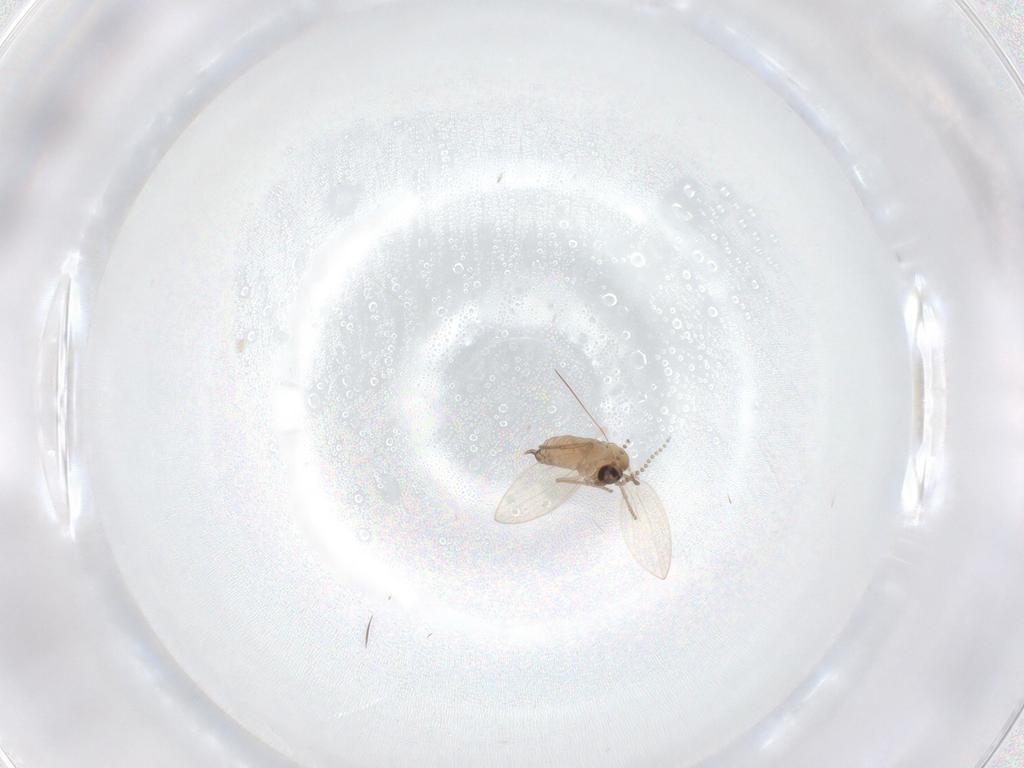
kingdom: Animalia
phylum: Arthropoda
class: Insecta
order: Diptera
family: Psychodidae
